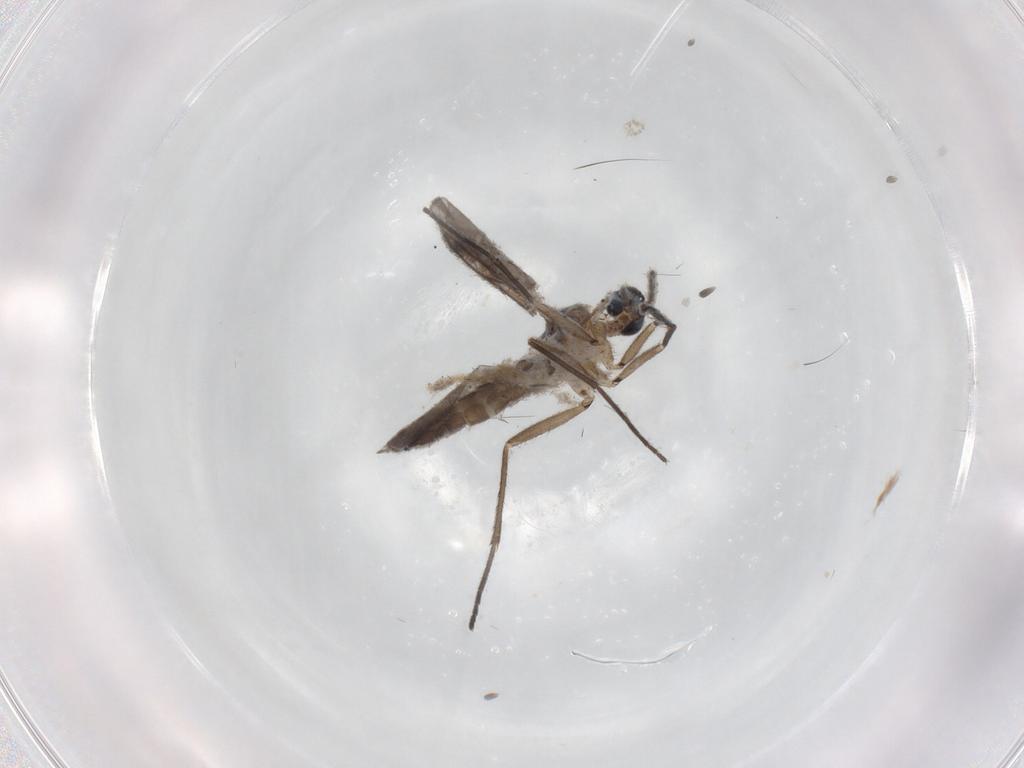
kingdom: Animalia
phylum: Arthropoda
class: Insecta
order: Diptera
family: Sciaridae
